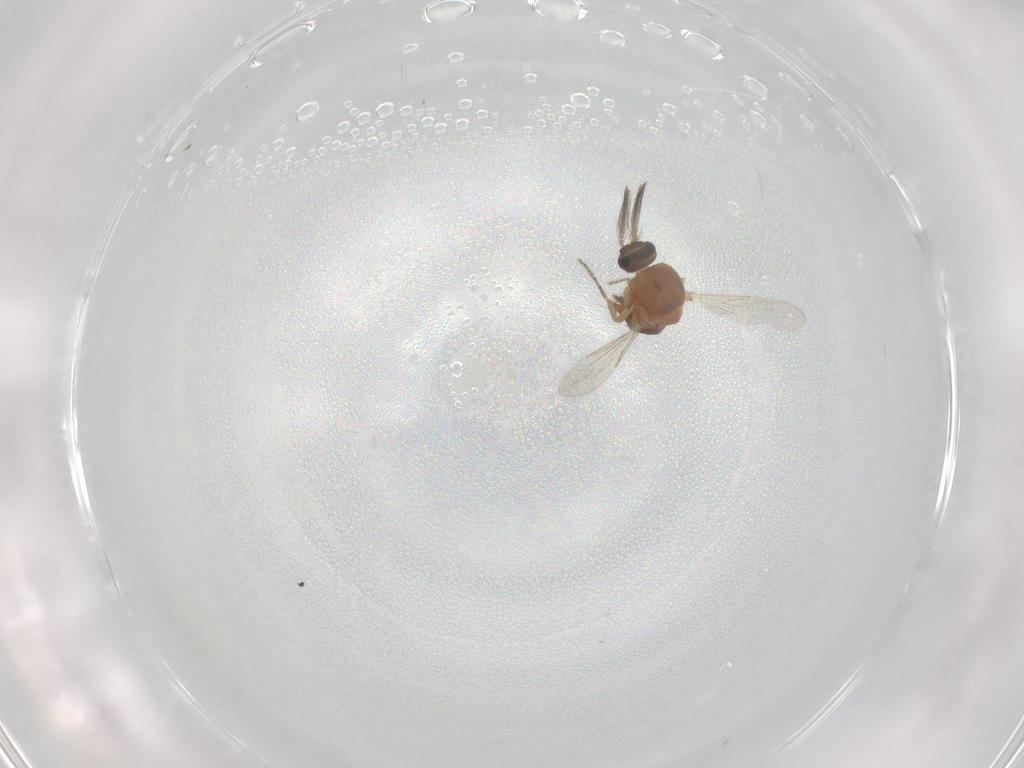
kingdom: Animalia
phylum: Arthropoda
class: Insecta
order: Diptera
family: Ceratopogonidae
